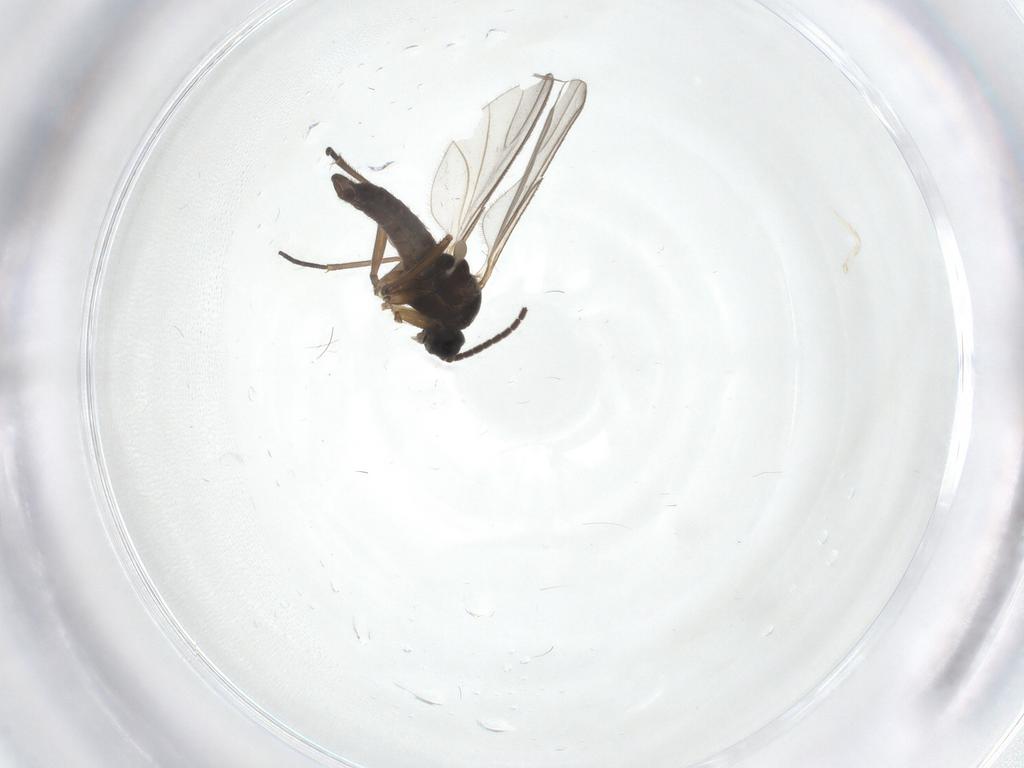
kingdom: Animalia
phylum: Arthropoda
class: Insecta
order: Diptera
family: Sciaridae
